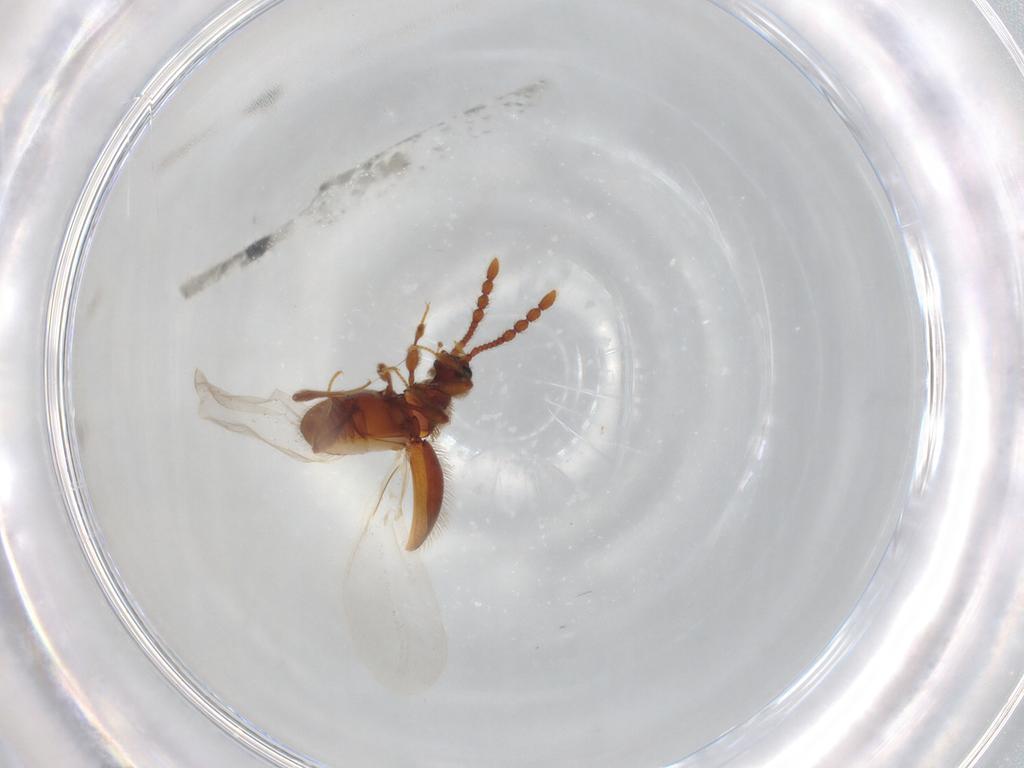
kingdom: Animalia
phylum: Arthropoda
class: Insecta
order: Coleoptera
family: Staphylinidae
